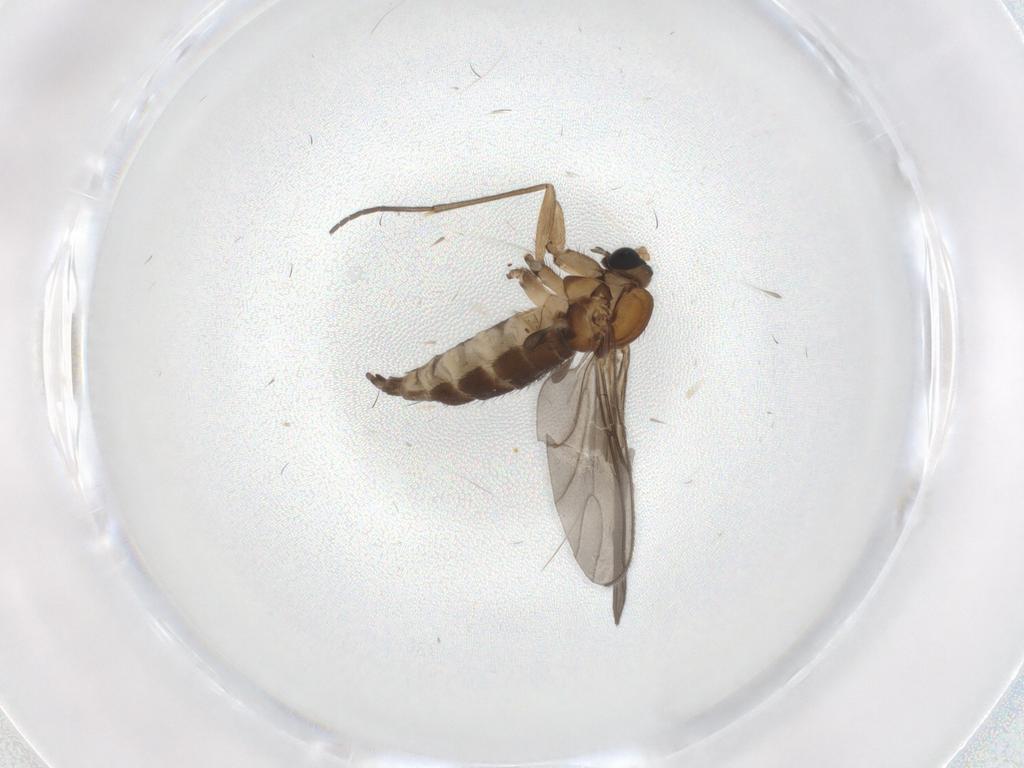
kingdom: Animalia
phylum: Arthropoda
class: Insecta
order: Diptera
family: Sciaridae
